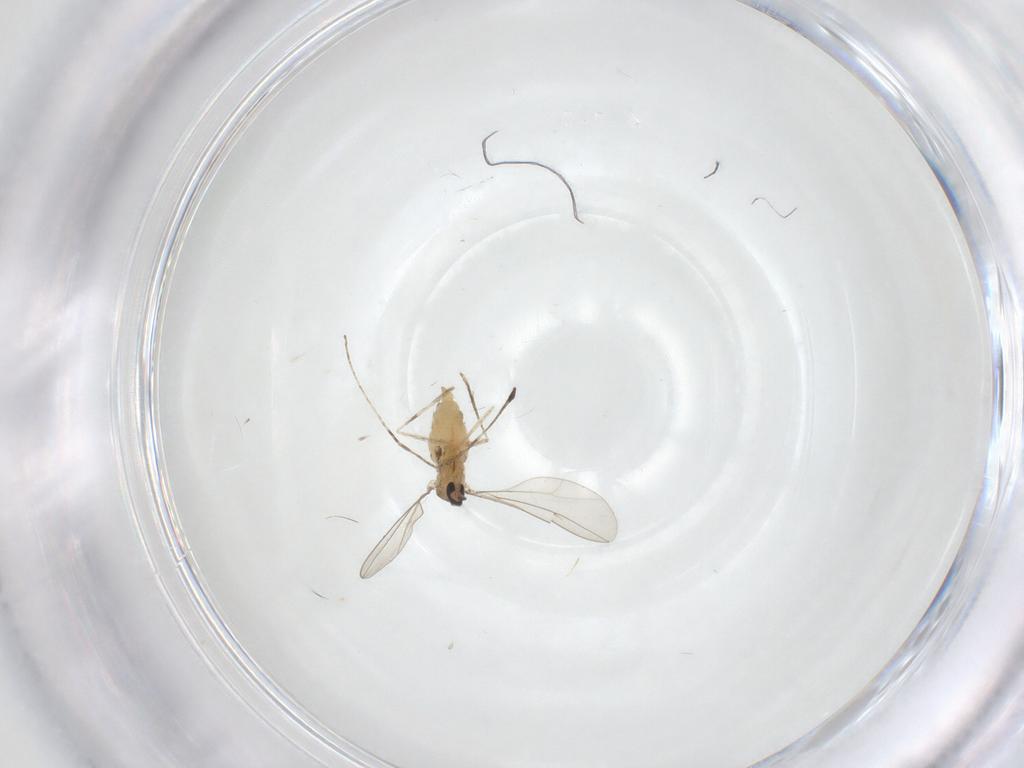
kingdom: Animalia
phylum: Arthropoda
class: Insecta
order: Diptera
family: Cecidomyiidae
